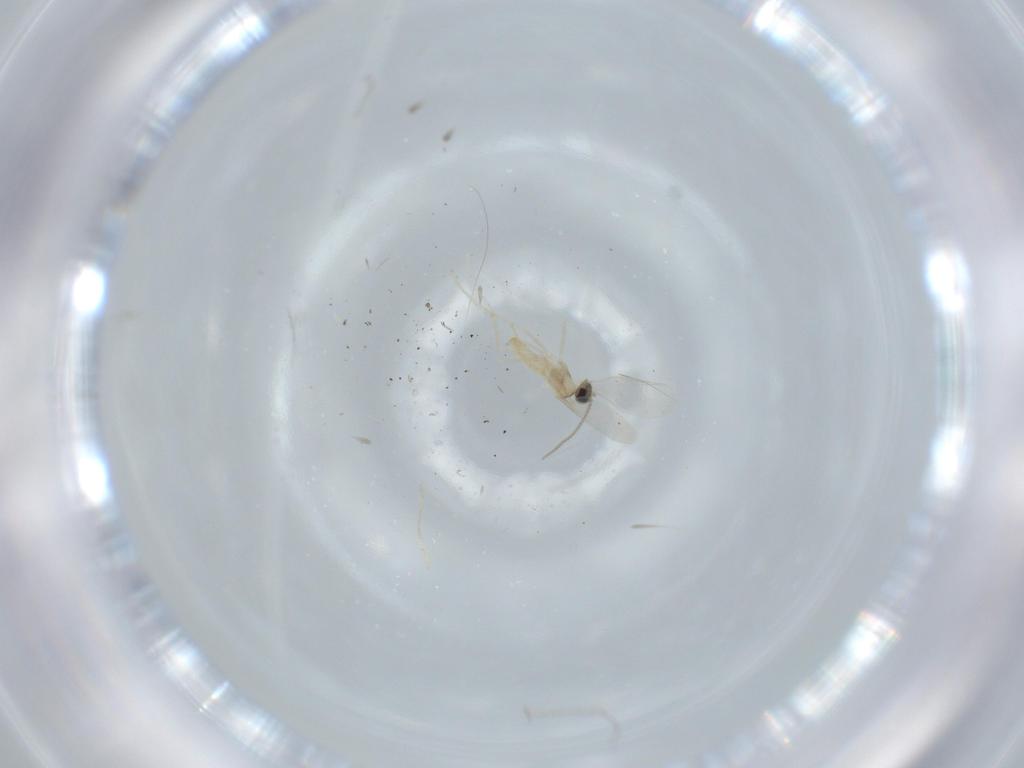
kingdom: Animalia
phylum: Arthropoda
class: Insecta
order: Diptera
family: Cecidomyiidae
